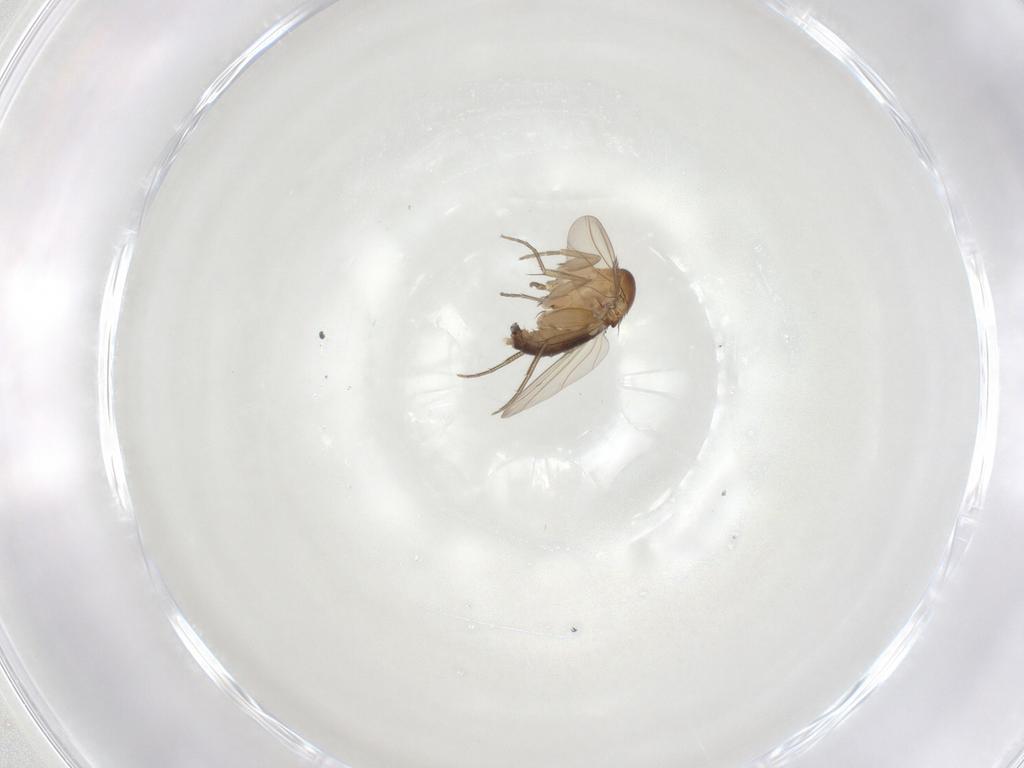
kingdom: Animalia
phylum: Arthropoda
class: Insecta
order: Diptera
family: Phoridae
